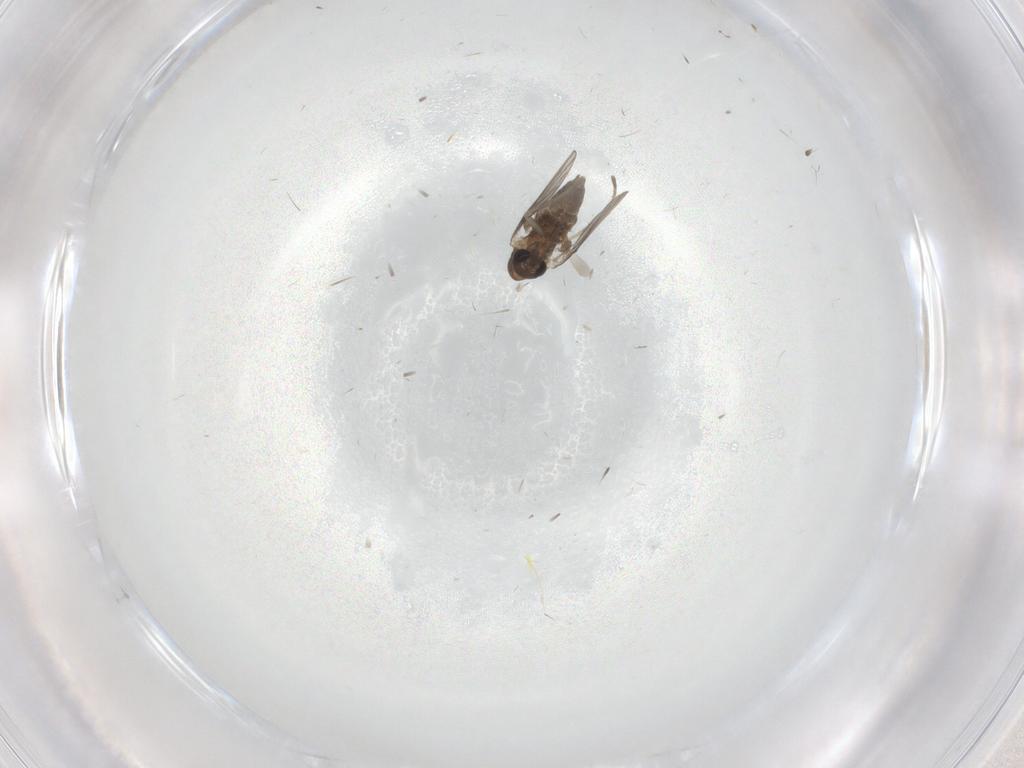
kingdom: Animalia
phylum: Arthropoda
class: Insecta
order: Diptera
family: Cecidomyiidae
